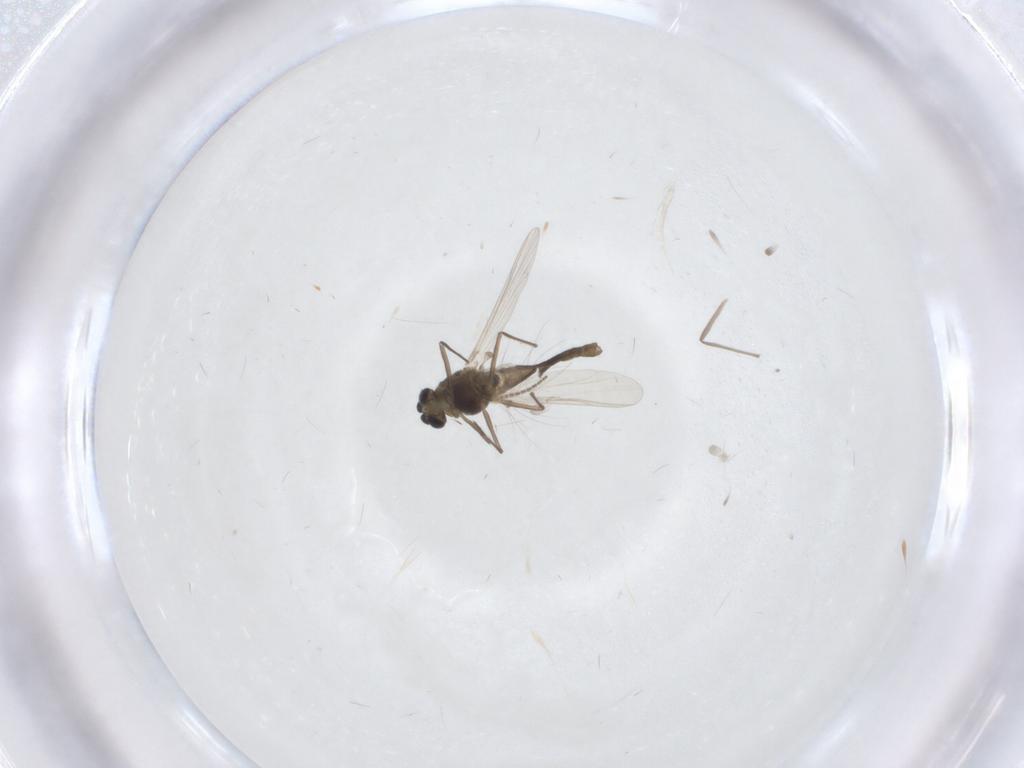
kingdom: Animalia
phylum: Arthropoda
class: Insecta
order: Diptera
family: Chironomidae
